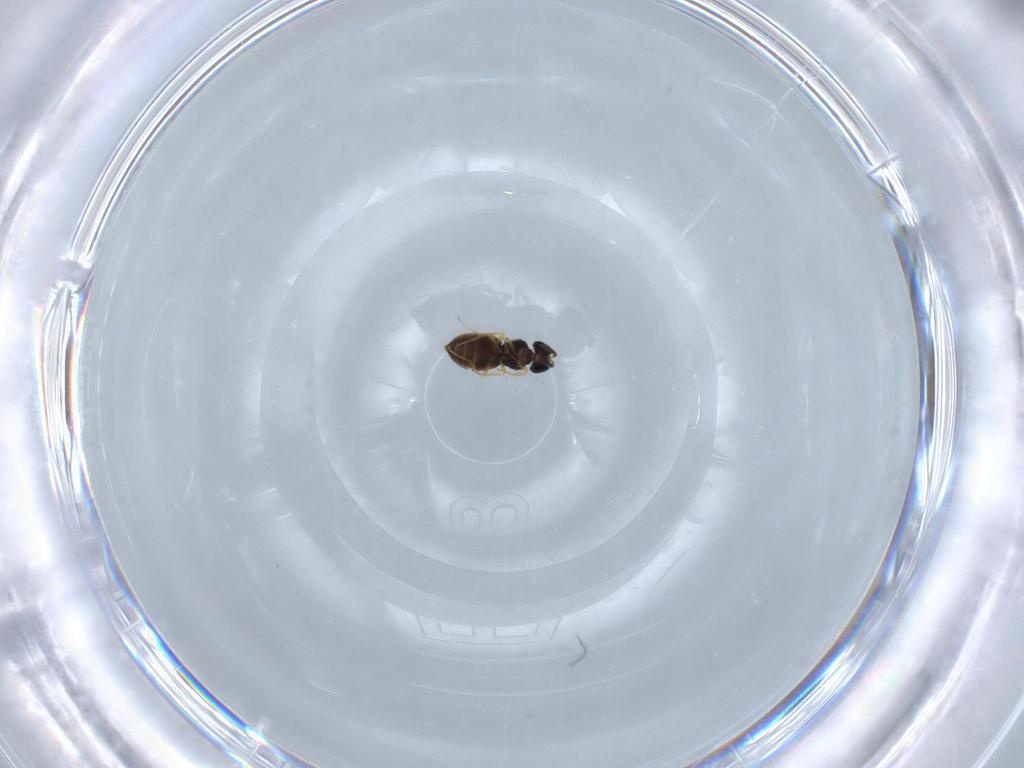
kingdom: Animalia
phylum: Arthropoda
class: Insecta
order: Hymenoptera
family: Scelionidae
